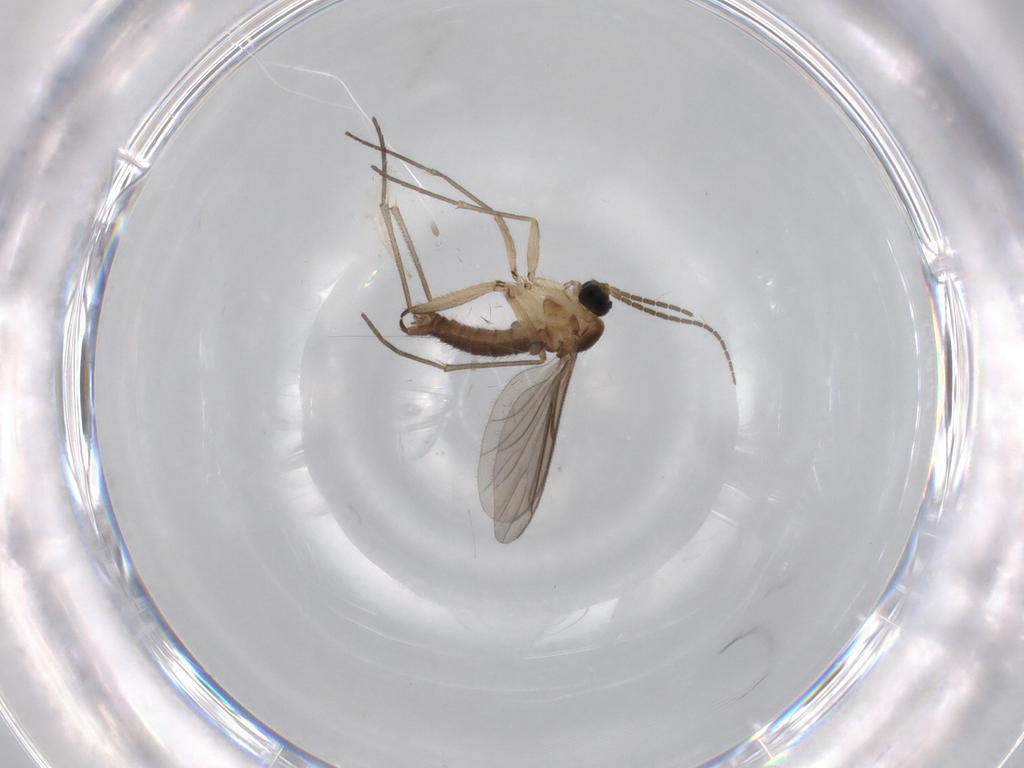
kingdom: Animalia
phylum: Arthropoda
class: Insecta
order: Diptera
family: Sciaridae
